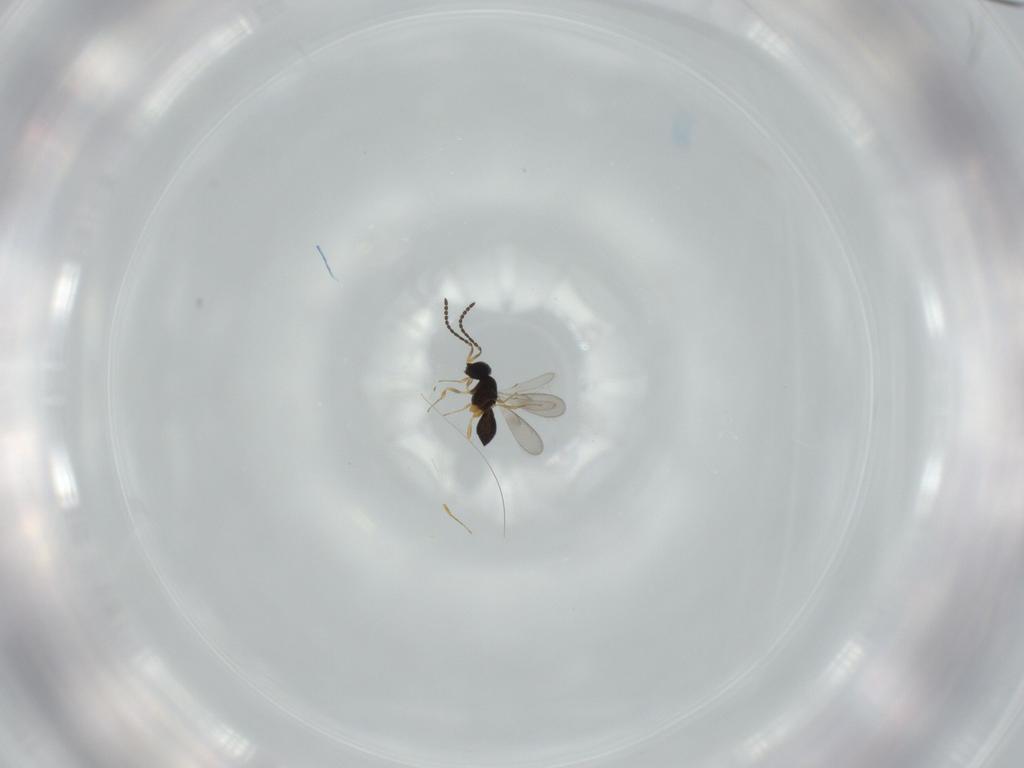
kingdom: Animalia
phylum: Arthropoda
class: Insecta
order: Hymenoptera
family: Scelionidae
